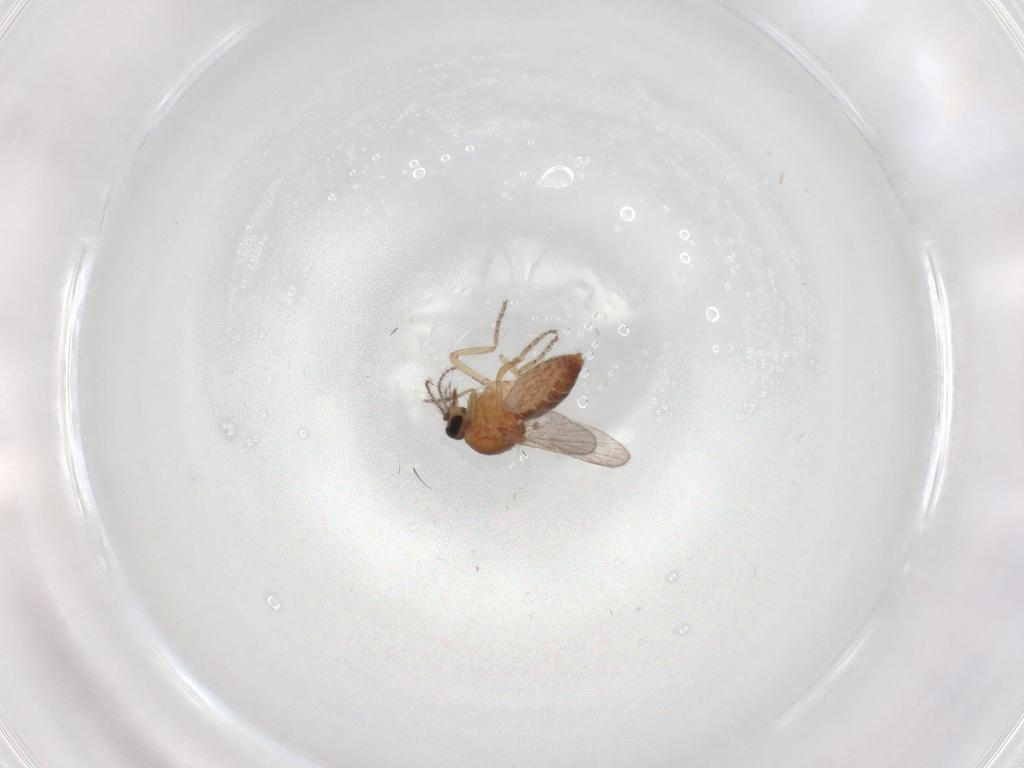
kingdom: Animalia
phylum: Arthropoda
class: Insecta
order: Diptera
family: Ceratopogonidae
